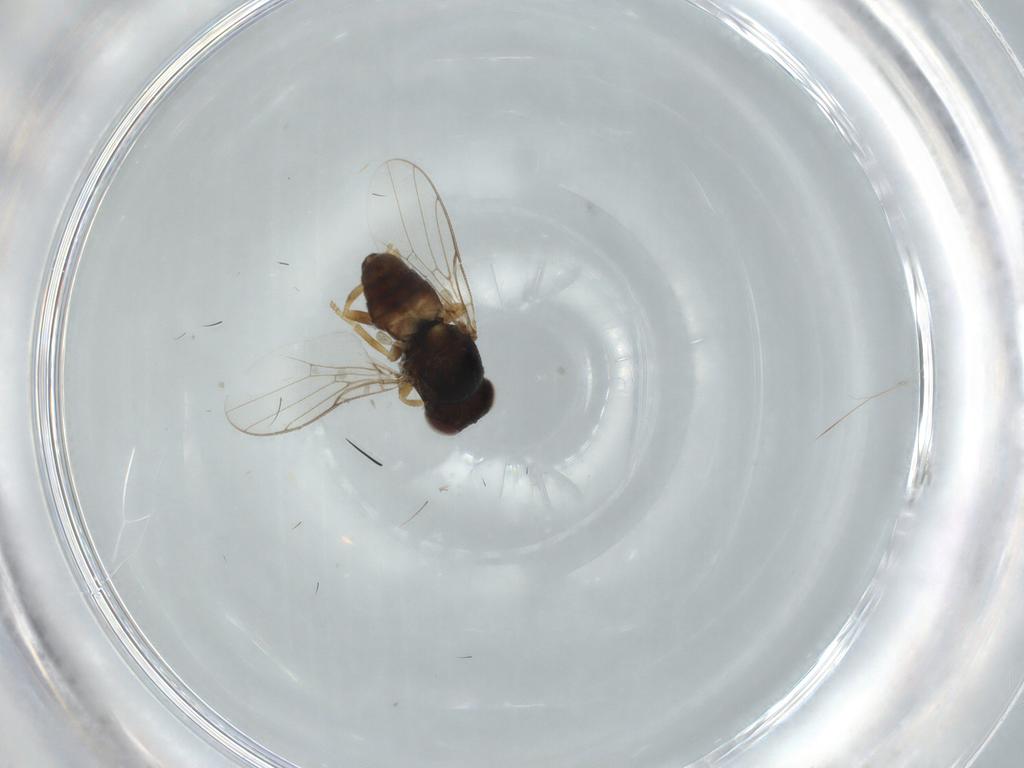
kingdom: Animalia
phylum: Arthropoda
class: Insecta
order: Diptera
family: Chloropidae
